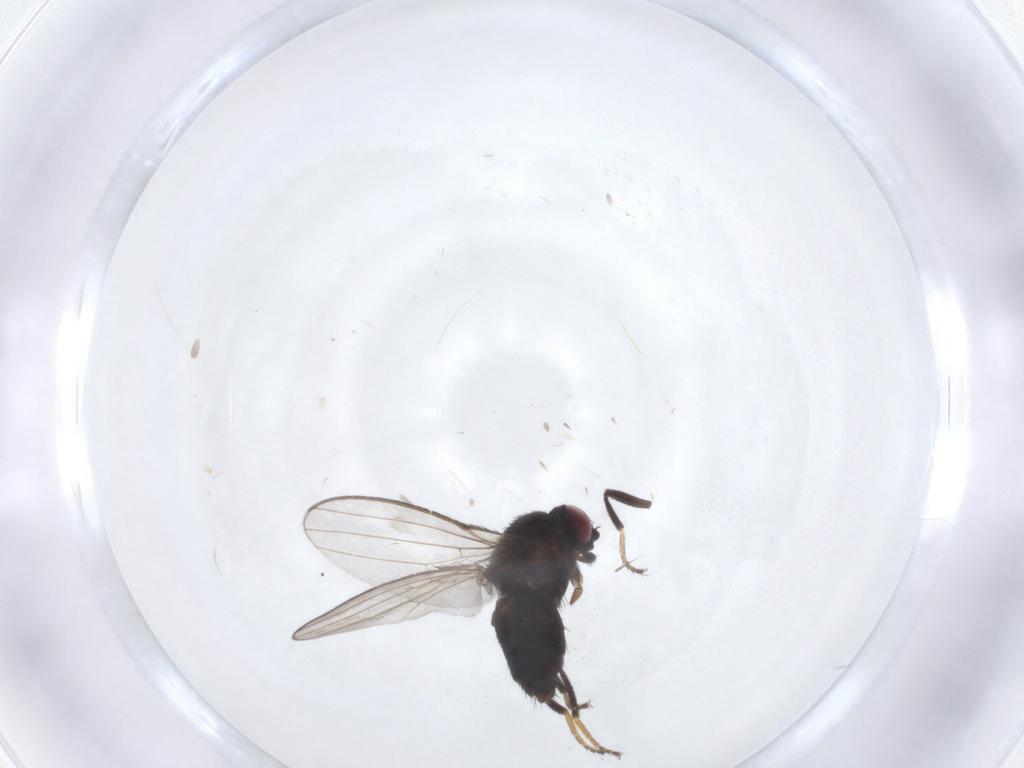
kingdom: Animalia
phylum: Arthropoda
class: Insecta
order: Diptera
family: Milichiidae
